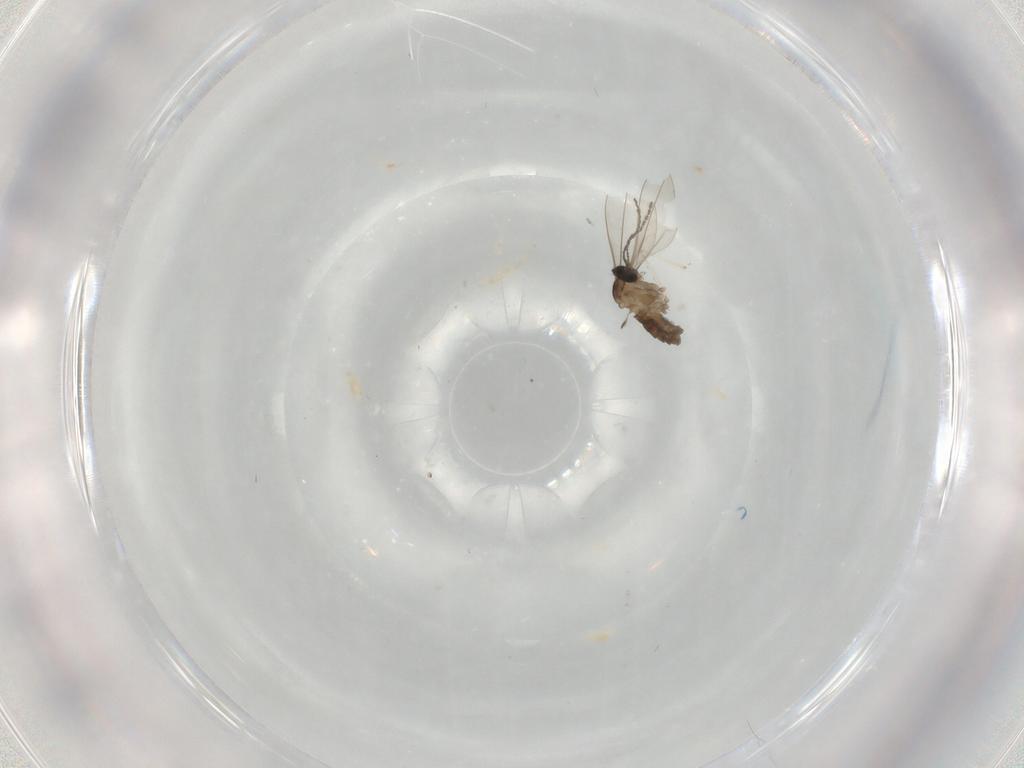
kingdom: Animalia
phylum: Arthropoda
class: Insecta
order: Diptera
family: Cecidomyiidae
